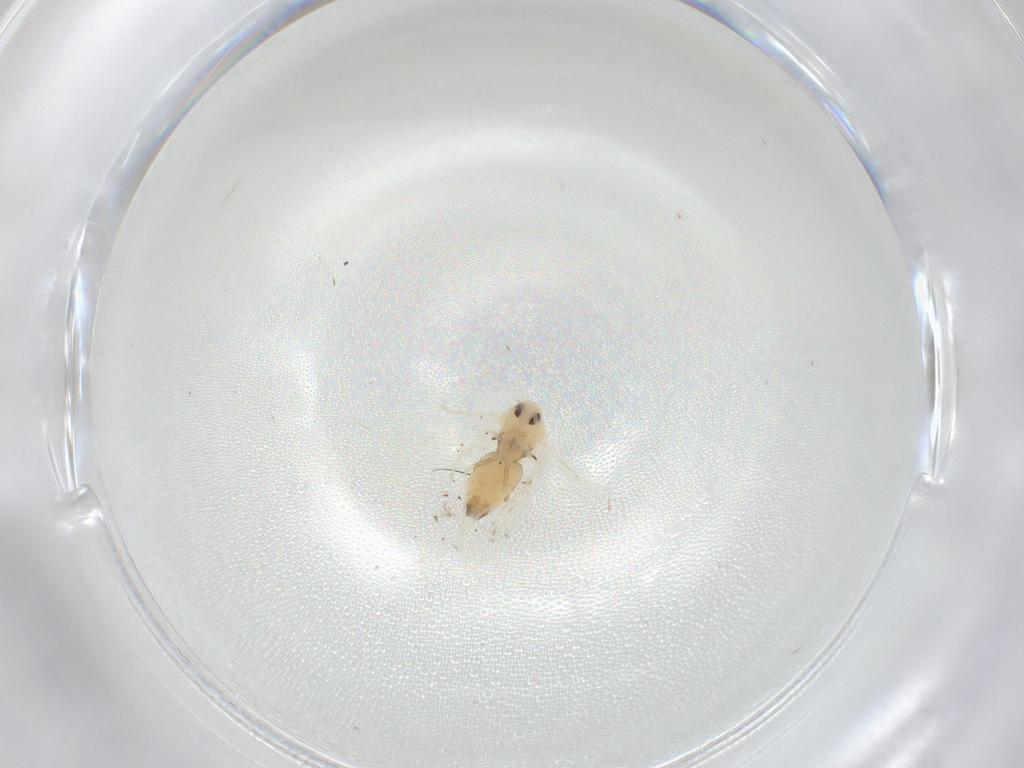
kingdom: Animalia
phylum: Arthropoda
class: Insecta
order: Hemiptera
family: Aleyrodidae
